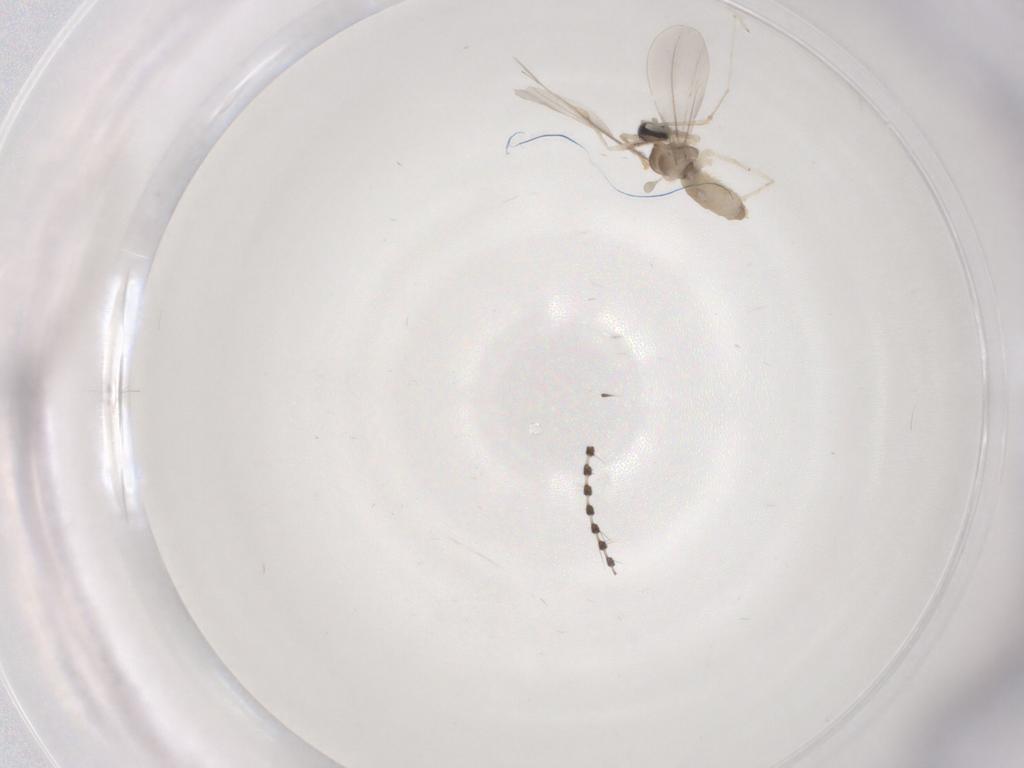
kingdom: Animalia
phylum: Arthropoda
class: Insecta
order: Diptera
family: Sciaridae
